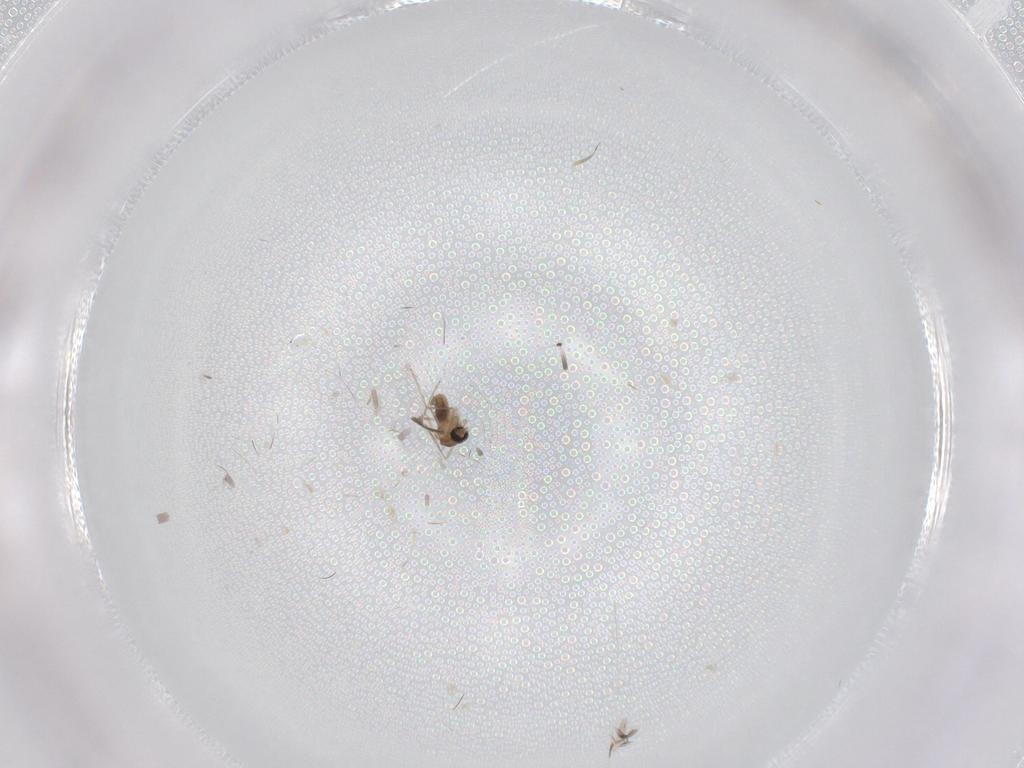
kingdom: Animalia
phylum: Arthropoda
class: Insecta
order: Diptera
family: Cecidomyiidae
